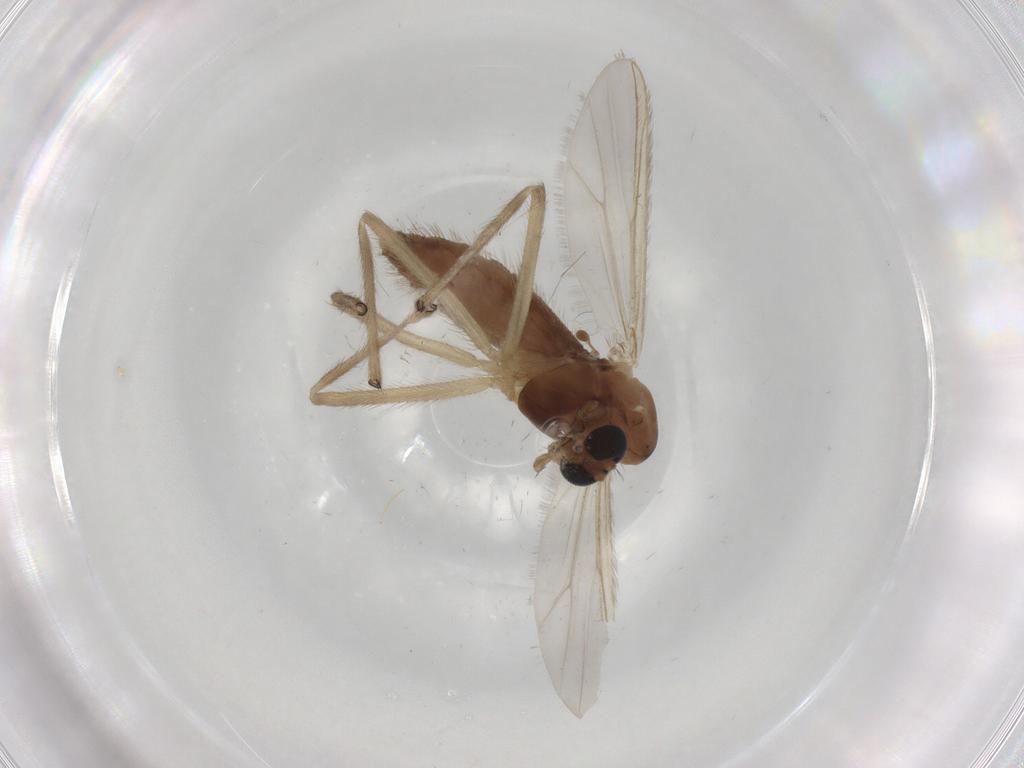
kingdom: Animalia
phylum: Arthropoda
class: Insecta
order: Diptera
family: Chironomidae
